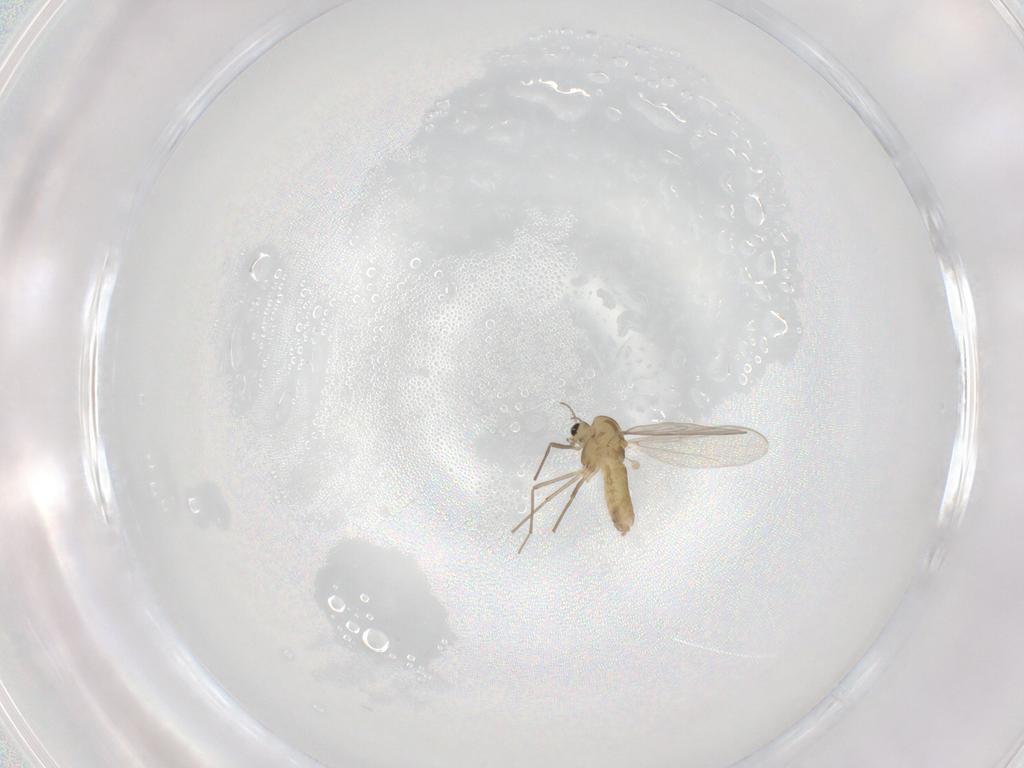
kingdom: Animalia
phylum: Arthropoda
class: Insecta
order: Diptera
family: Chironomidae
